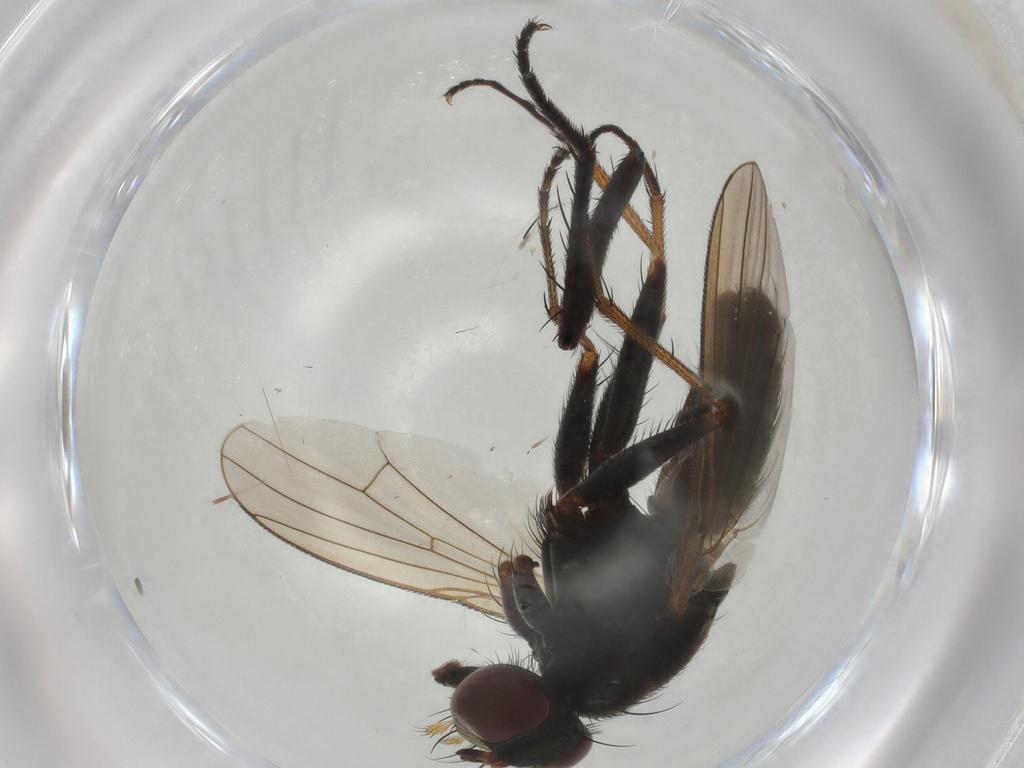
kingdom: Animalia
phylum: Arthropoda
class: Insecta
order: Diptera
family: Muscidae
